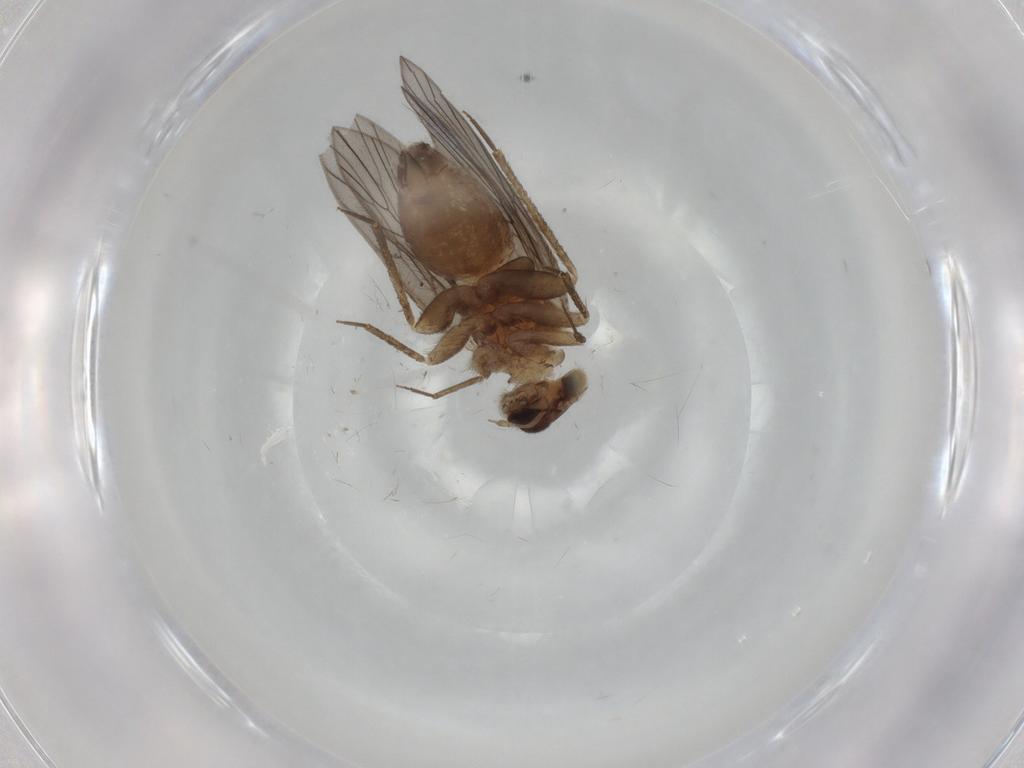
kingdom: Animalia
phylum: Arthropoda
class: Insecta
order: Psocodea
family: Lepidopsocidae
